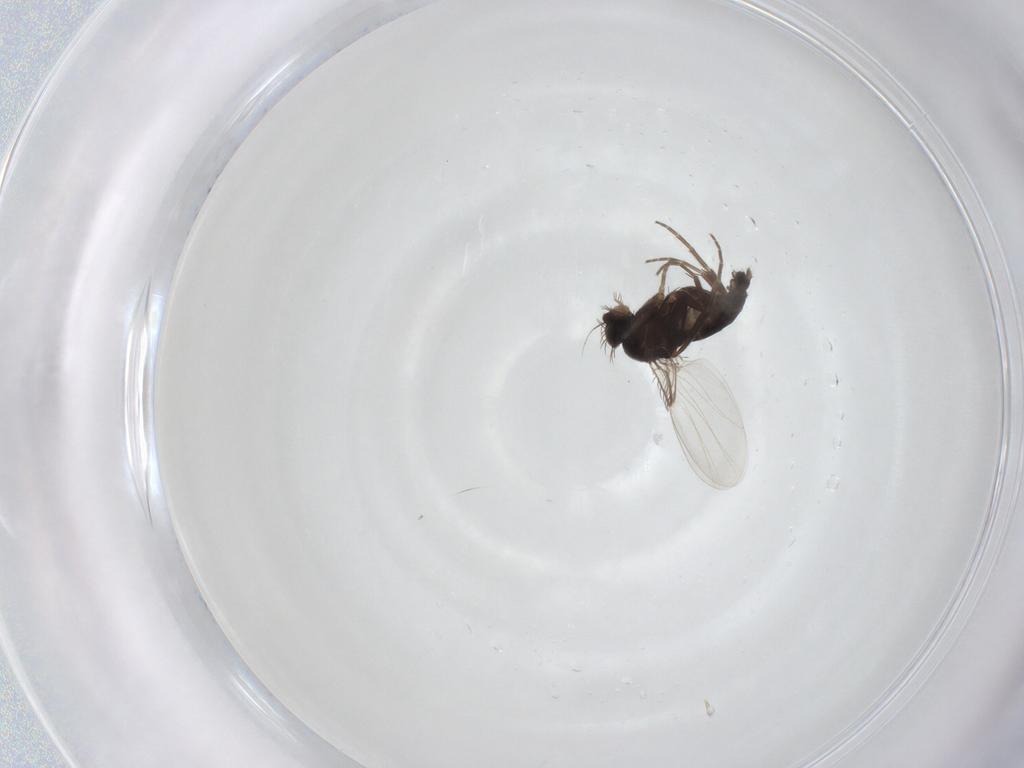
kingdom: Animalia
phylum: Arthropoda
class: Insecta
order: Diptera
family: Phoridae
